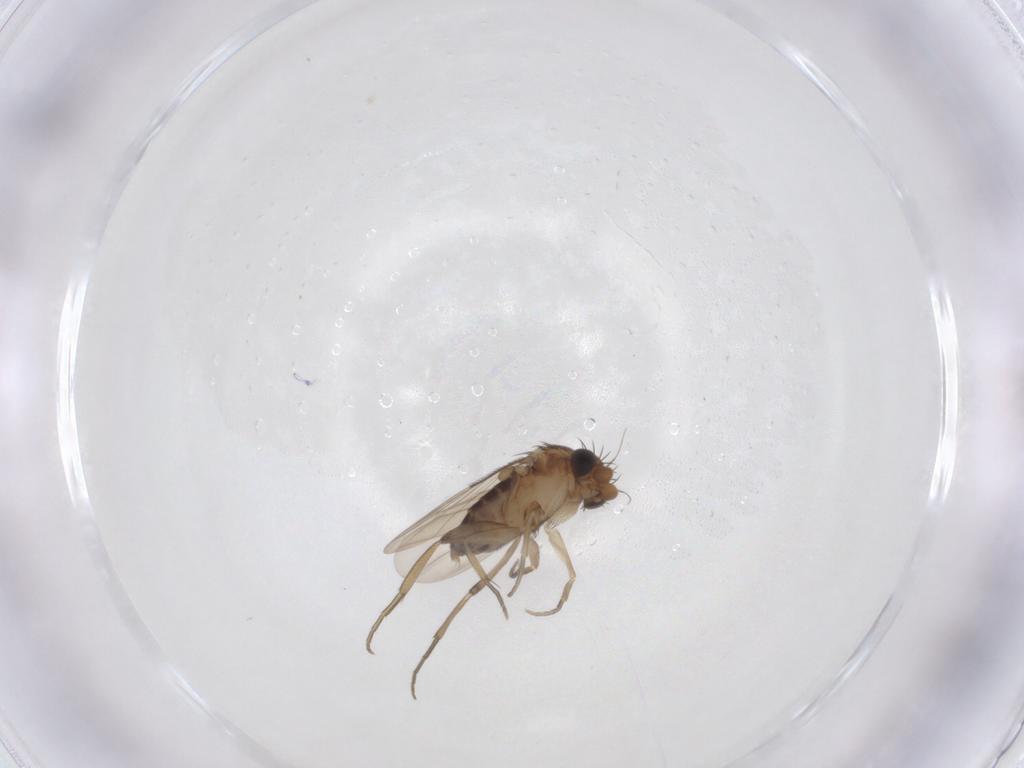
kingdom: Animalia
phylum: Arthropoda
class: Insecta
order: Diptera
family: Phoridae
